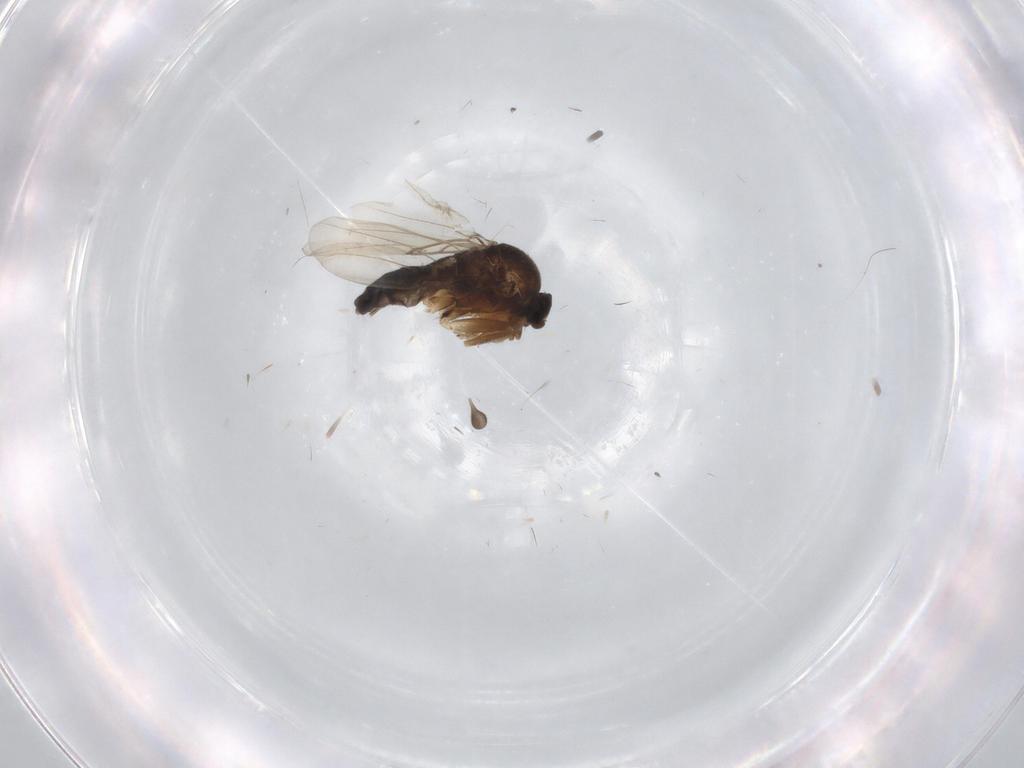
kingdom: Animalia
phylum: Arthropoda
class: Insecta
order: Diptera
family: Sciaridae
